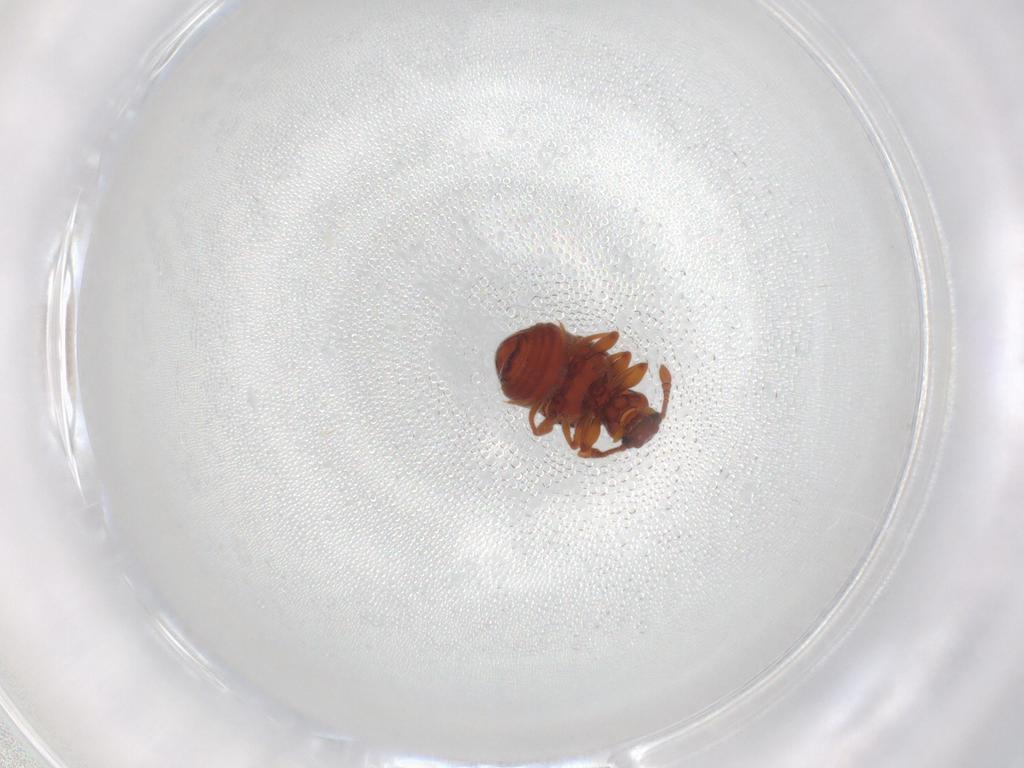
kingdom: Animalia
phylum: Arthropoda
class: Insecta
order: Coleoptera
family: Staphylinidae
